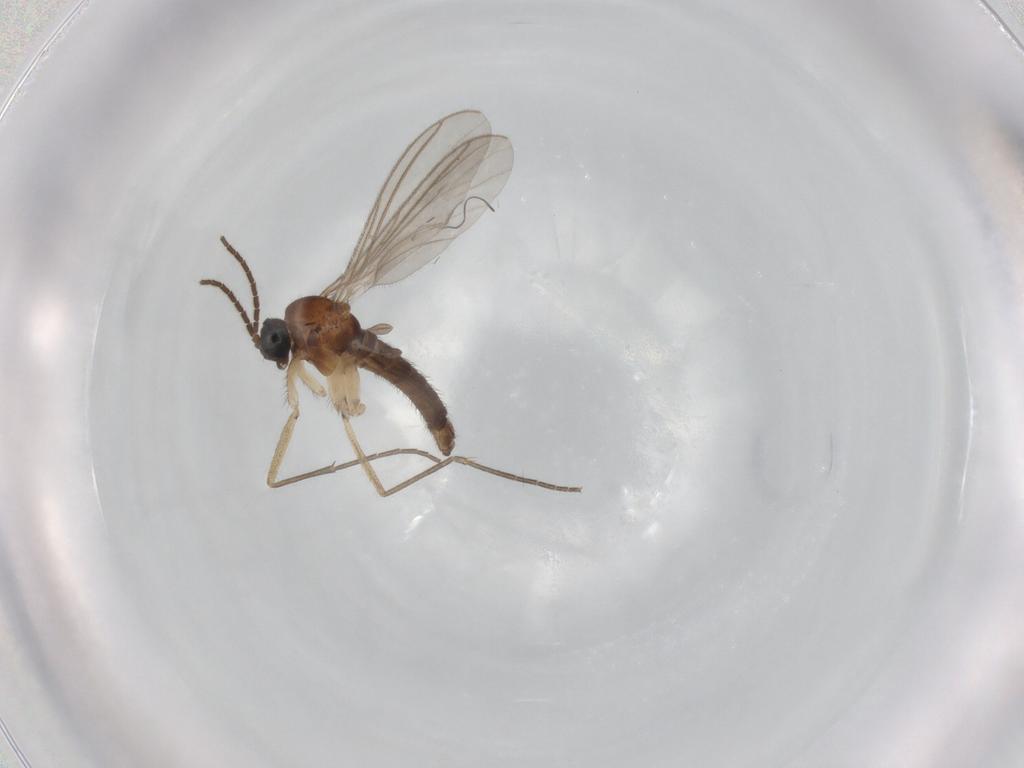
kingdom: Animalia
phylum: Arthropoda
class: Insecta
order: Diptera
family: Sciaridae
